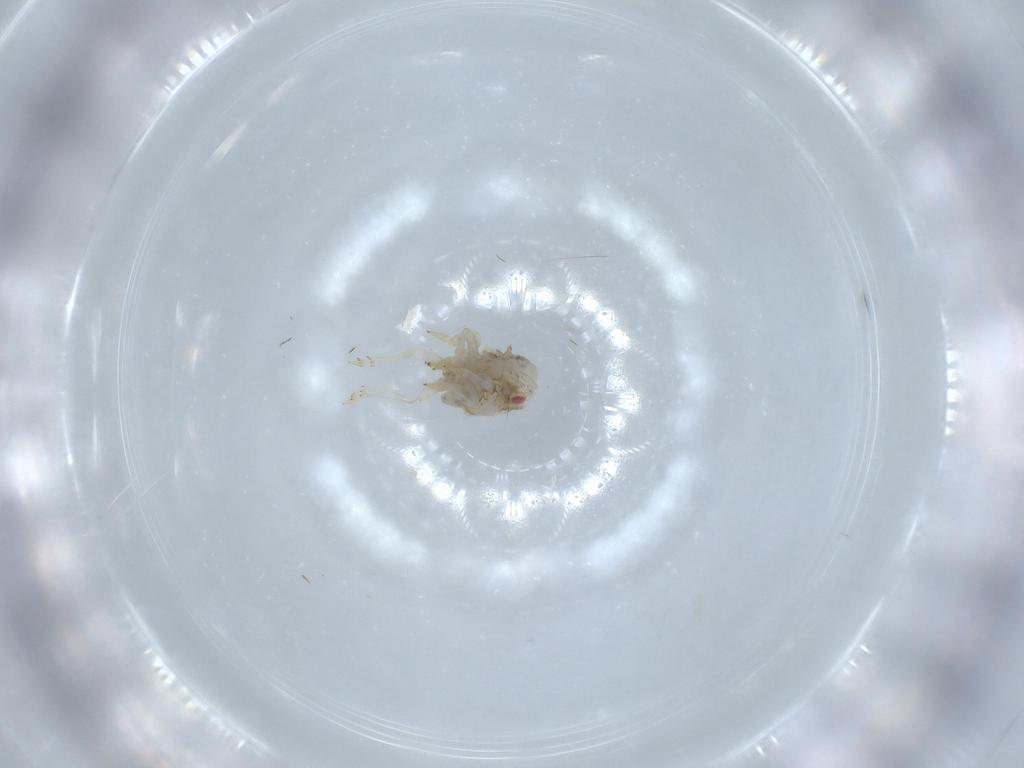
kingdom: Animalia
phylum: Arthropoda
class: Insecta
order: Hemiptera
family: Acanaloniidae
